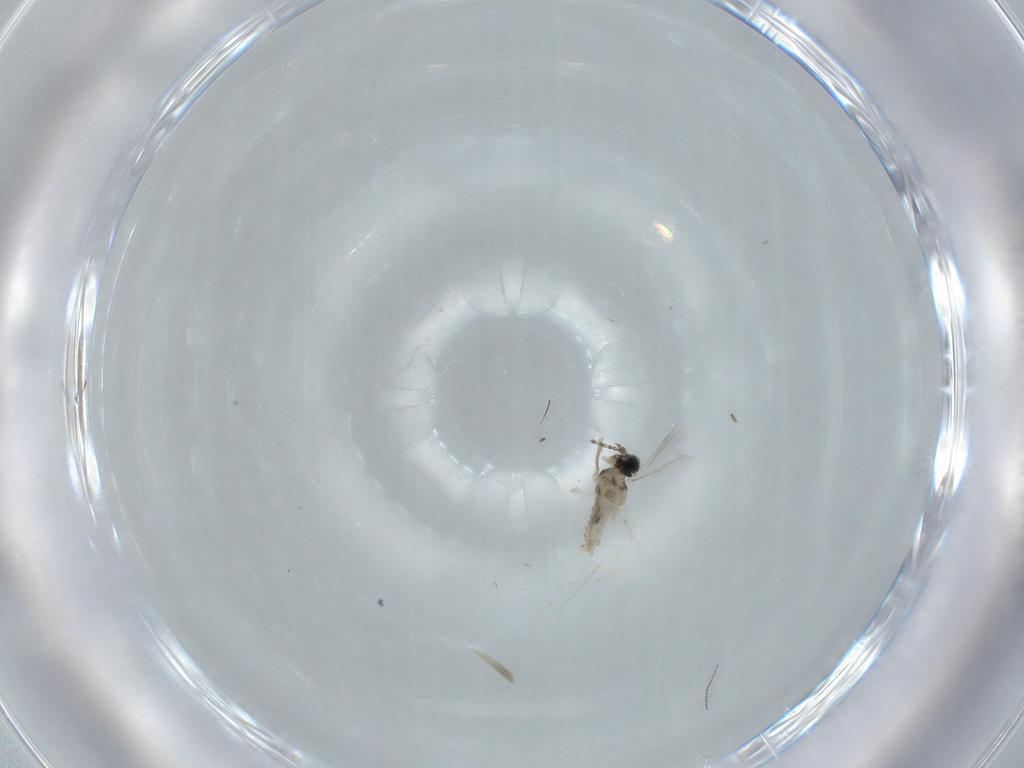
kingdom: Animalia
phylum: Arthropoda
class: Insecta
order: Diptera
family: Cecidomyiidae
